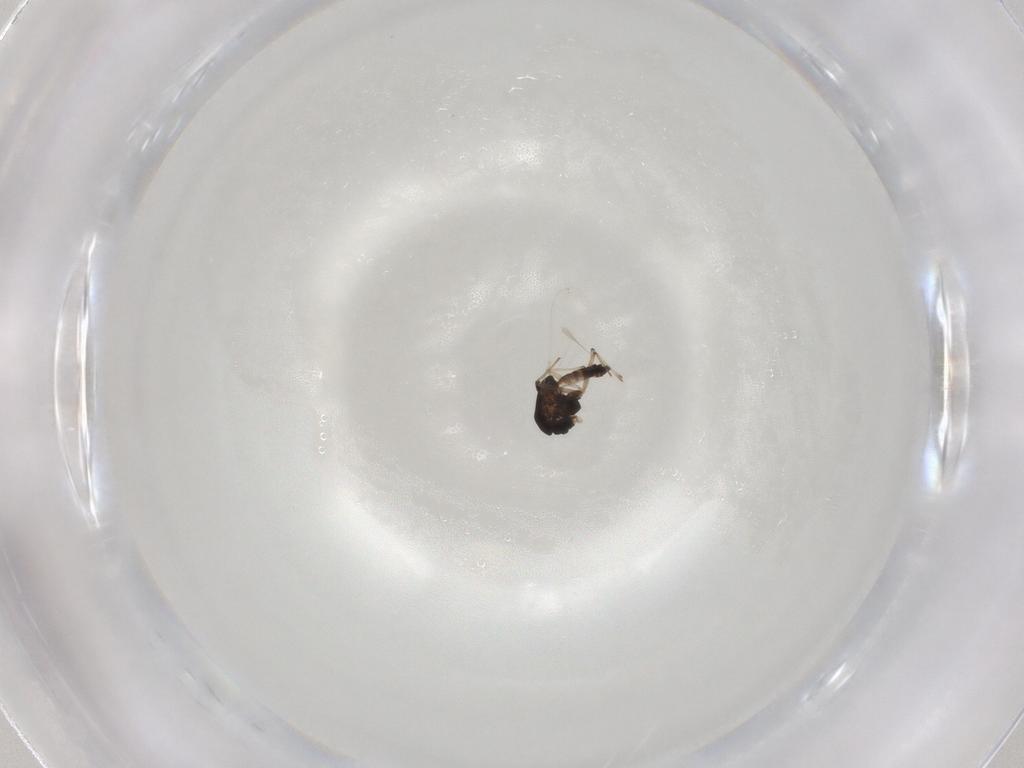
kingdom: Animalia
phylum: Arthropoda
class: Insecta
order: Diptera
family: Chironomidae
